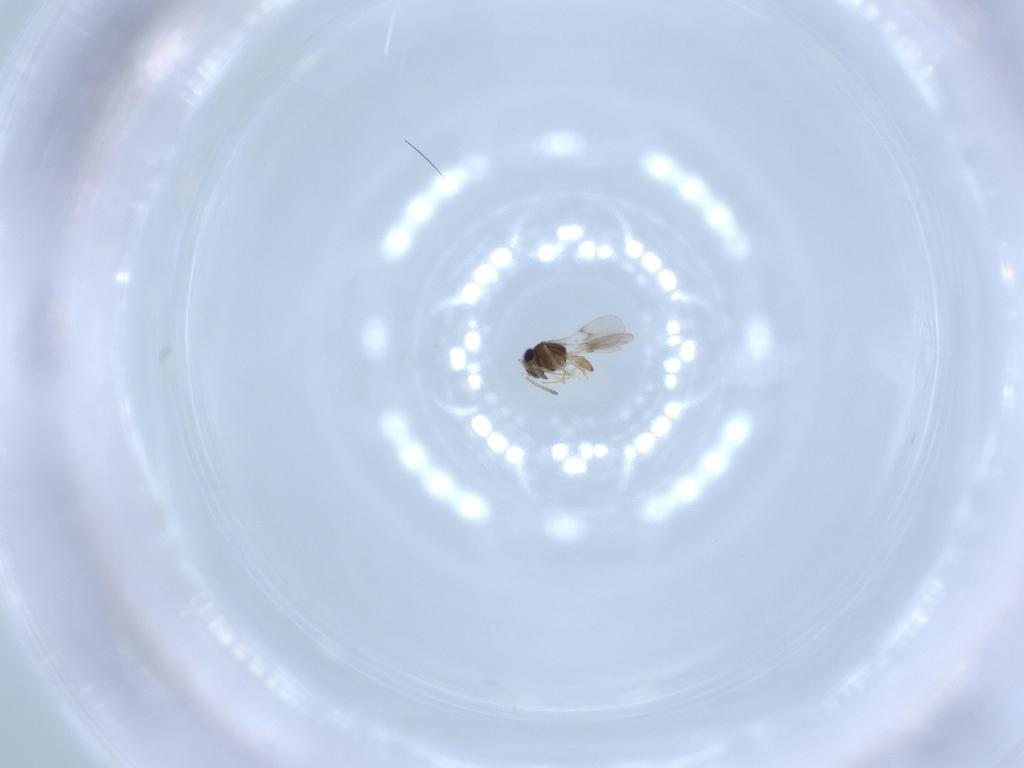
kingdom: Animalia
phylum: Arthropoda
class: Insecta
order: Hymenoptera
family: Scelionidae
